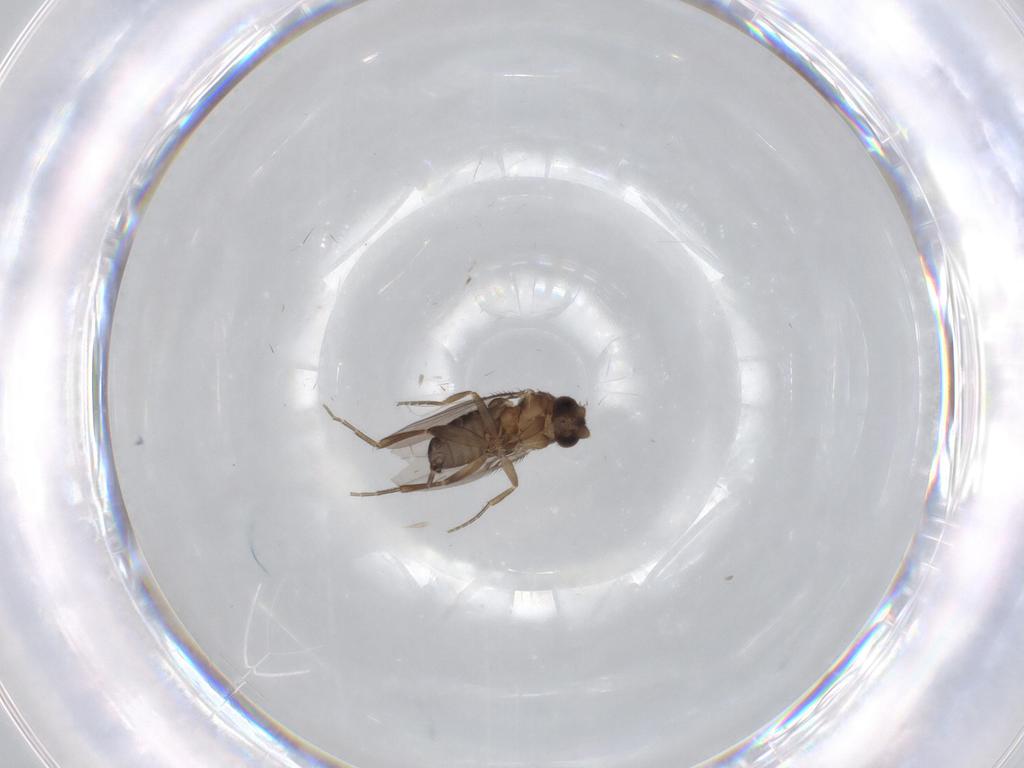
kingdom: Animalia
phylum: Arthropoda
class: Insecta
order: Diptera
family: Phoridae
